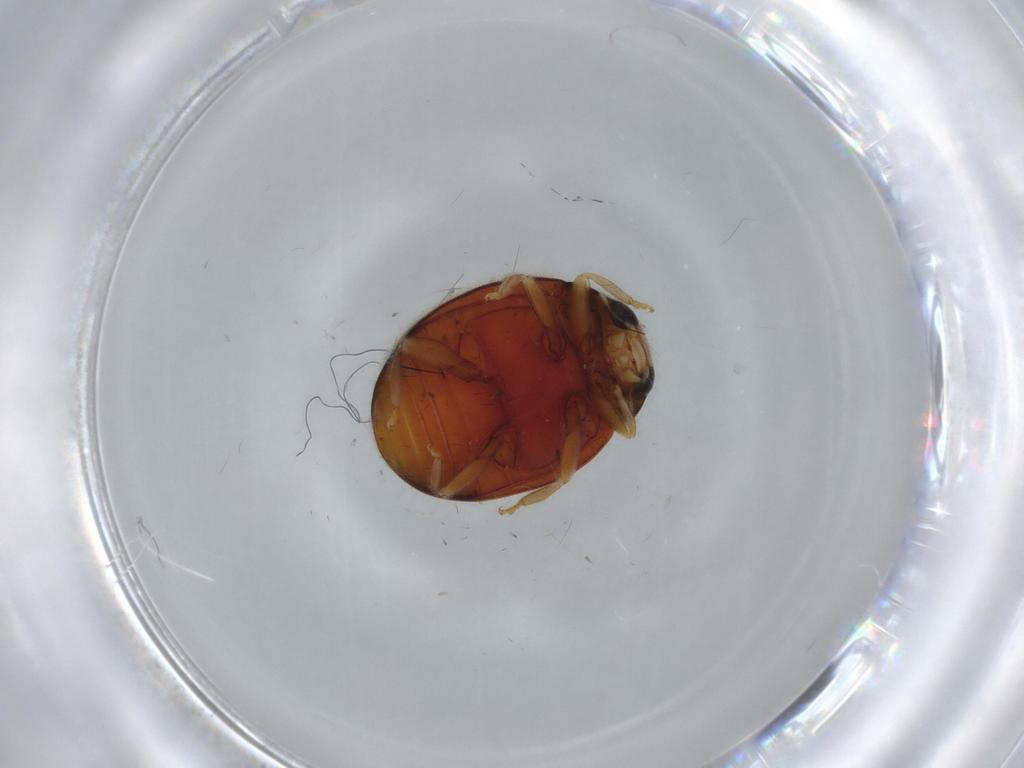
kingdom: Animalia
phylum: Arthropoda
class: Insecta
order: Coleoptera
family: Coccinellidae
